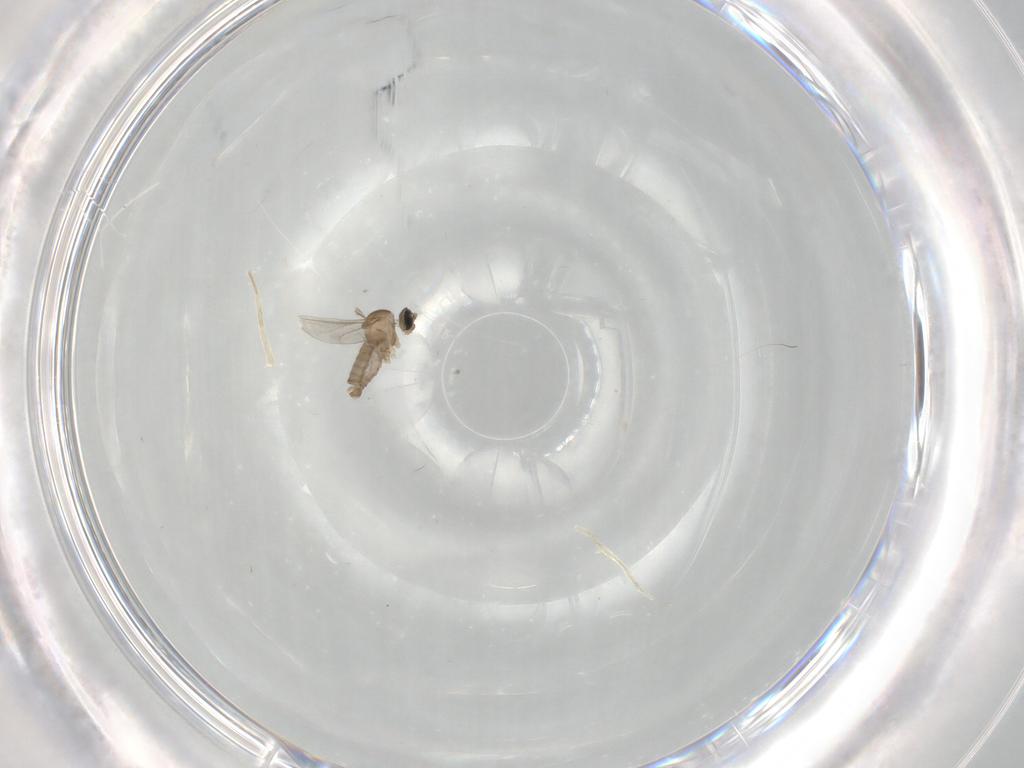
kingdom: Animalia
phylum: Arthropoda
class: Insecta
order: Diptera
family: Cecidomyiidae
